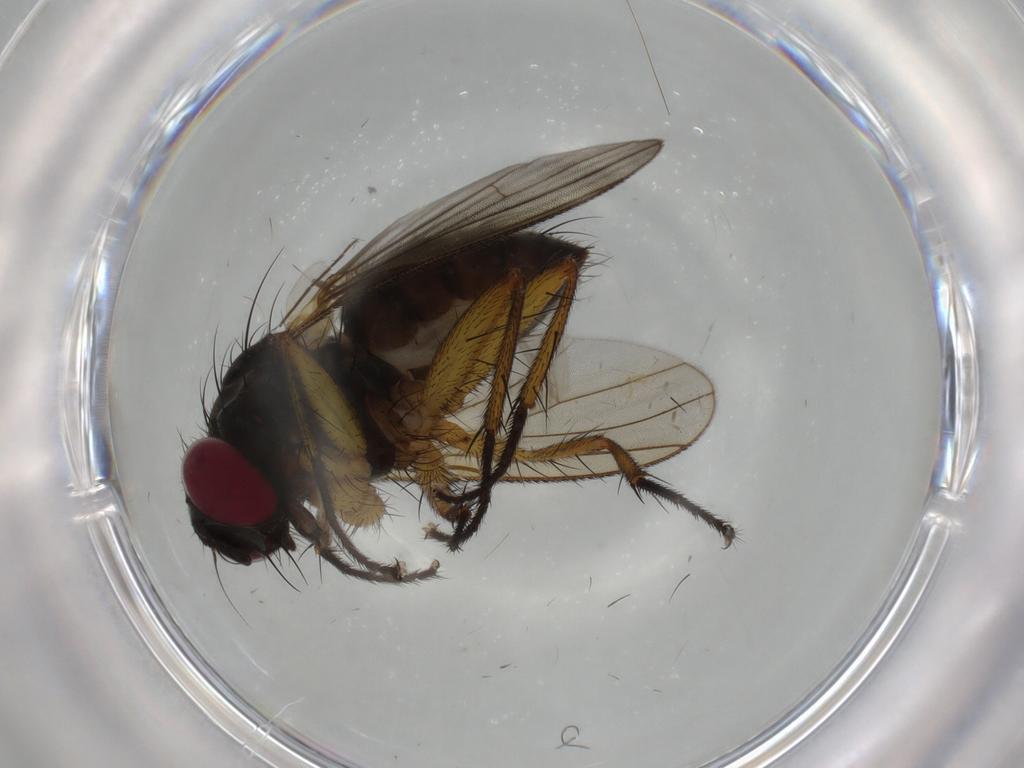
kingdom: Animalia
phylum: Arthropoda
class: Insecta
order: Diptera
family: Muscidae
